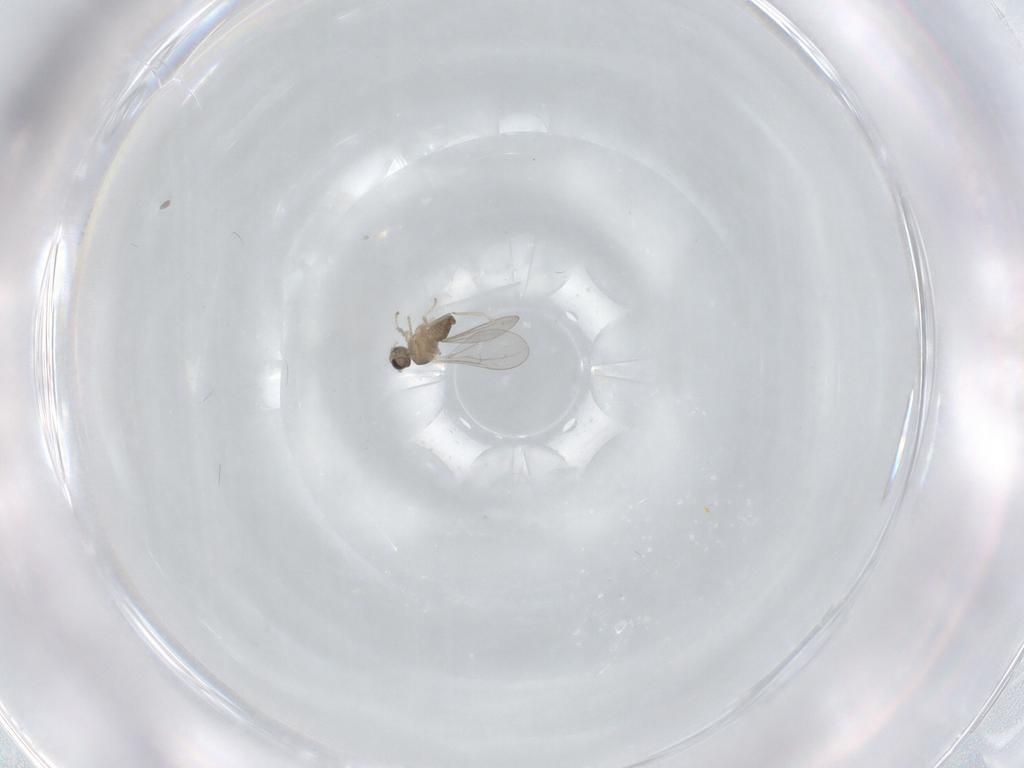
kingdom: Animalia
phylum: Arthropoda
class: Insecta
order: Diptera
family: Cecidomyiidae
